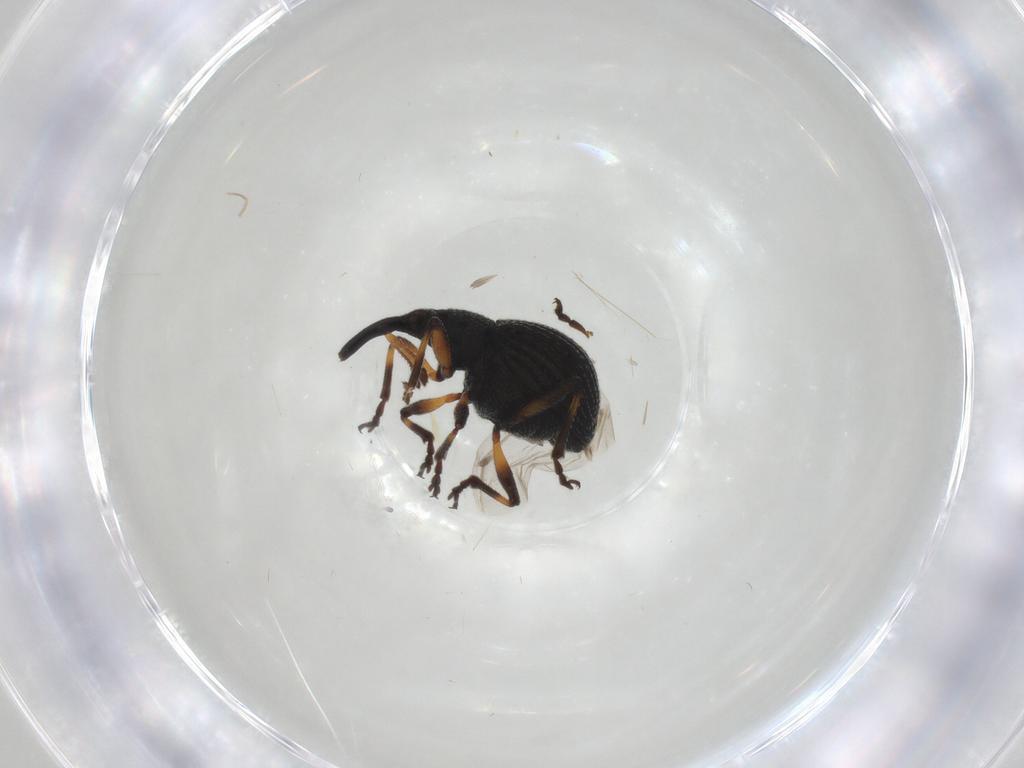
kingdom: Animalia
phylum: Arthropoda
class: Insecta
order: Coleoptera
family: Brentidae
